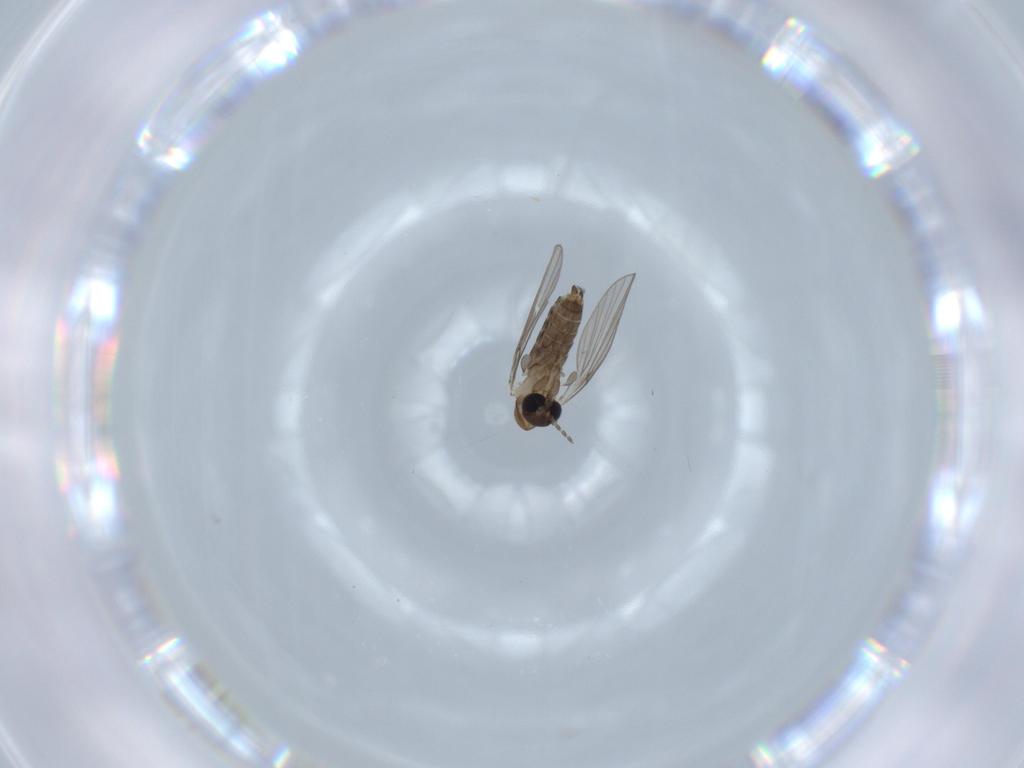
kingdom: Animalia
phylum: Arthropoda
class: Insecta
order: Diptera
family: Psychodidae
